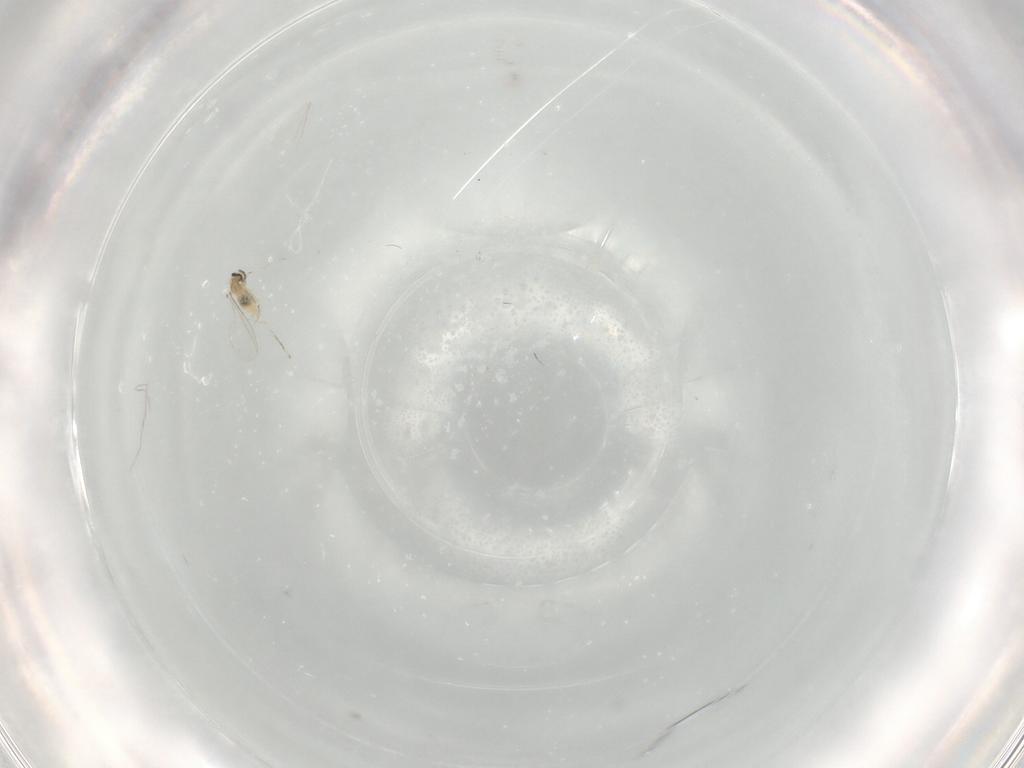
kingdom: Animalia
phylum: Arthropoda
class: Insecta
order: Diptera
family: Cecidomyiidae
